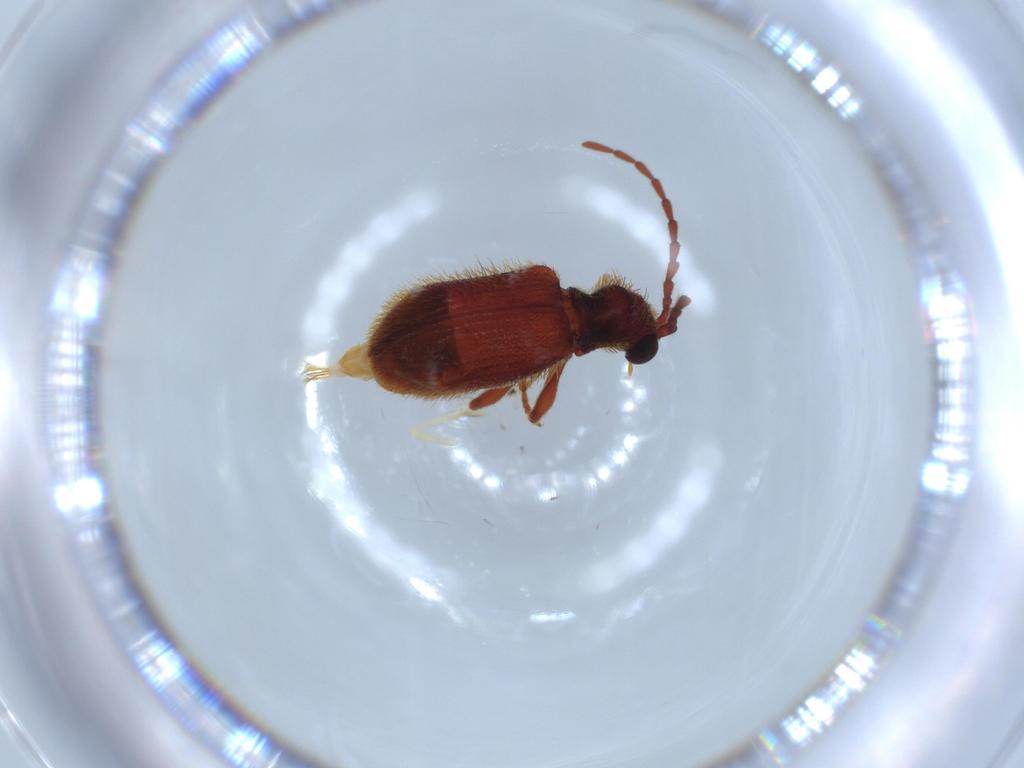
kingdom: Animalia
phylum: Arthropoda
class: Insecta
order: Coleoptera
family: Ptinidae
